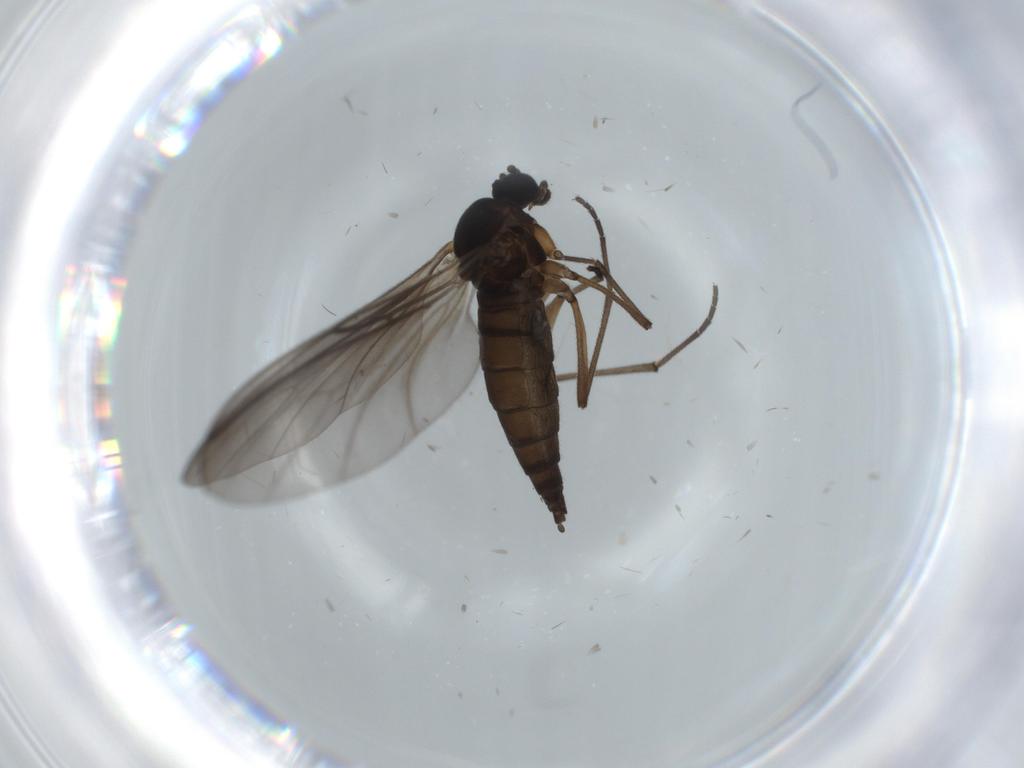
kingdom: Animalia
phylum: Arthropoda
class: Insecta
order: Diptera
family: Sciaridae
